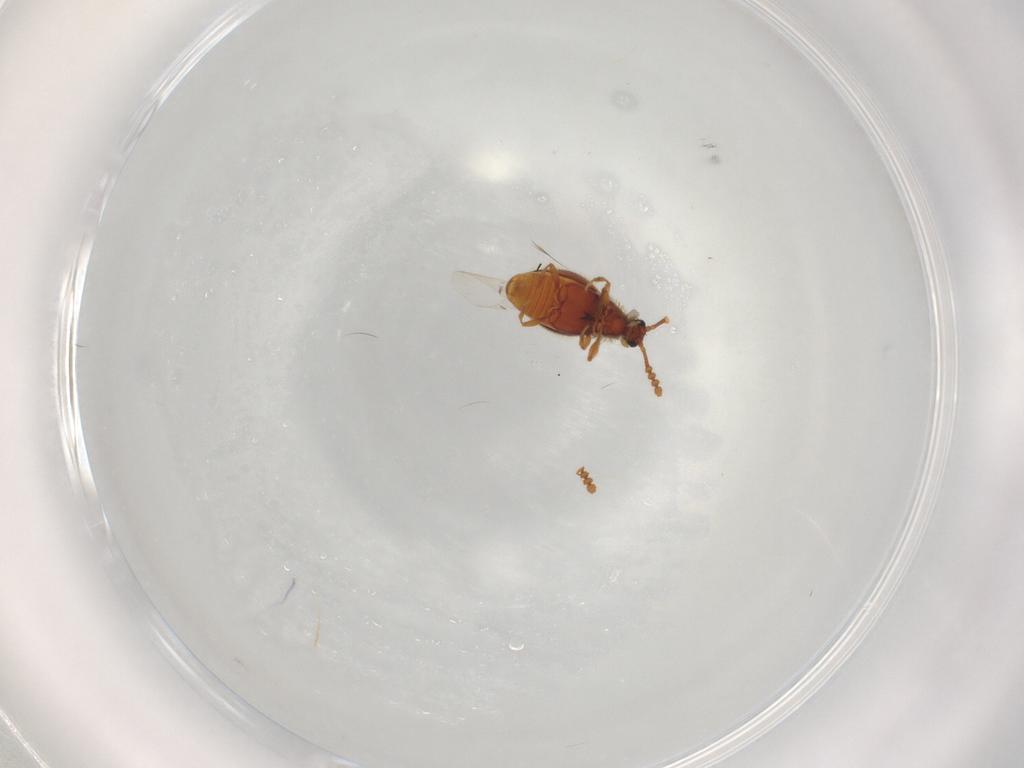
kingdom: Animalia
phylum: Arthropoda
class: Insecta
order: Coleoptera
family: Staphylinidae
